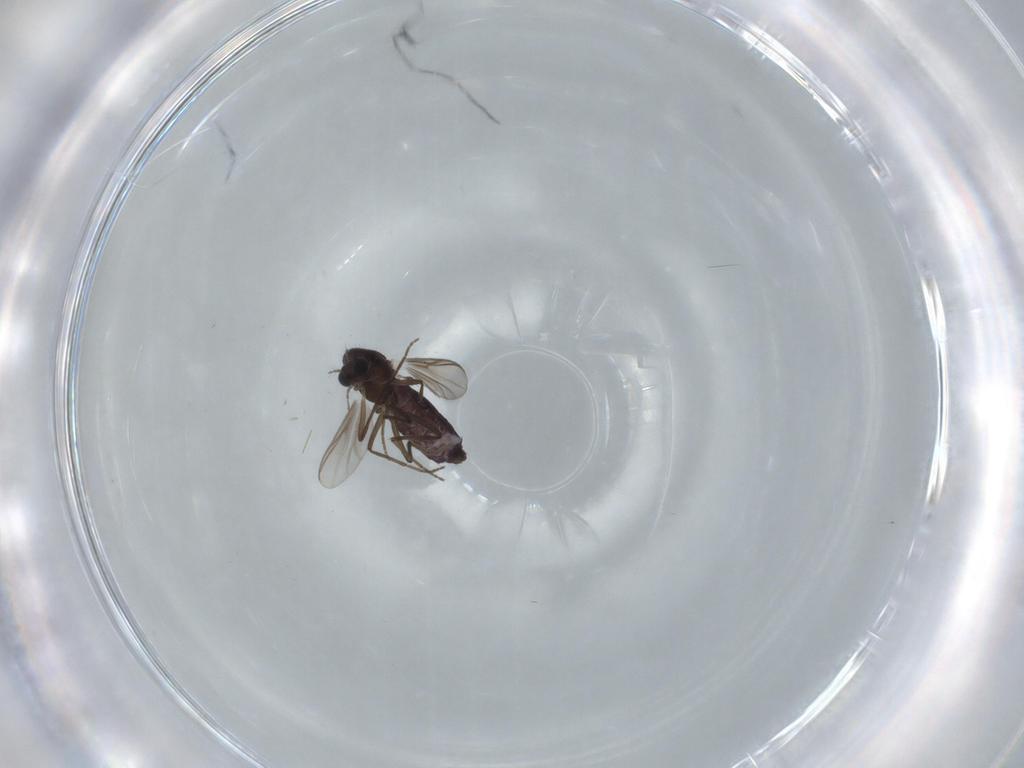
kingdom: Animalia
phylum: Arthropoda
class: Insecta
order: Diptera
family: Chironomidae
